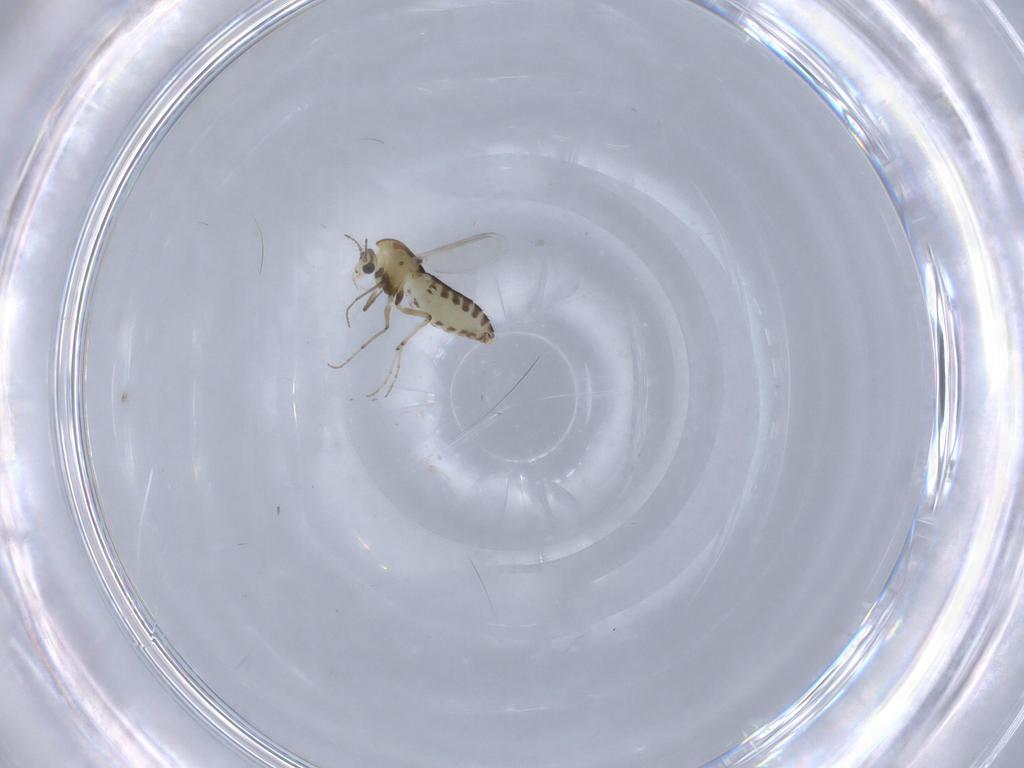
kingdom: Animalia
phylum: Arthropoda
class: Insecta
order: Diptera
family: Chironomidae
